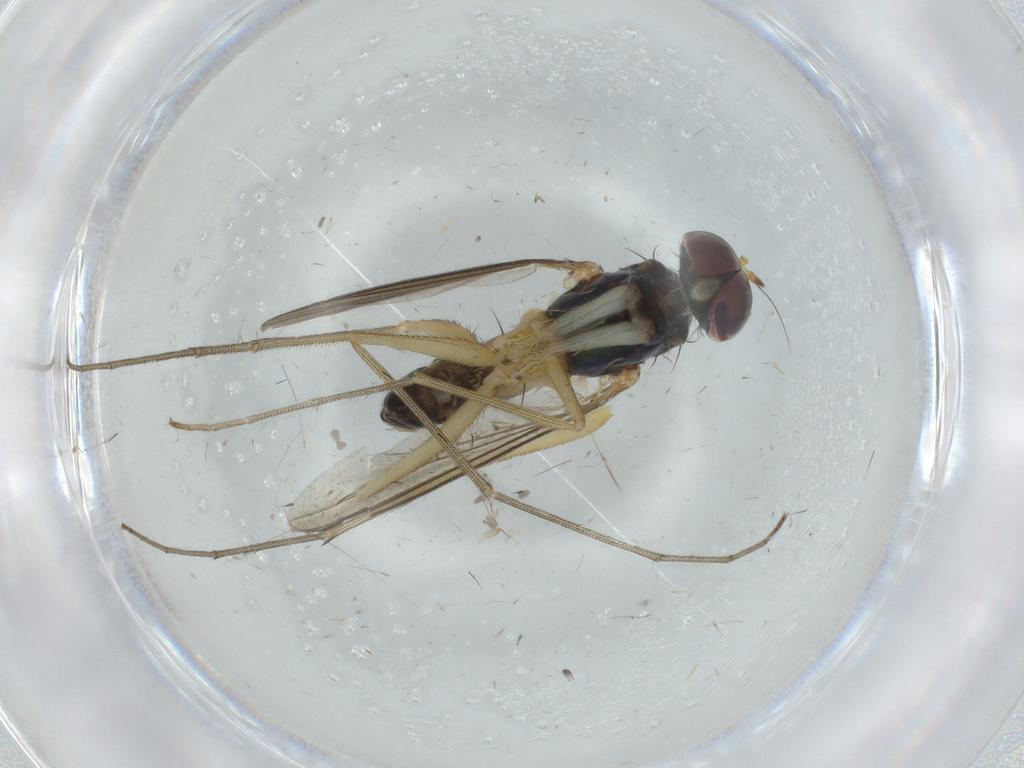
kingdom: Animalia
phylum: Arthropoda
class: Insecta
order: Diptera
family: Dolichopodidae
